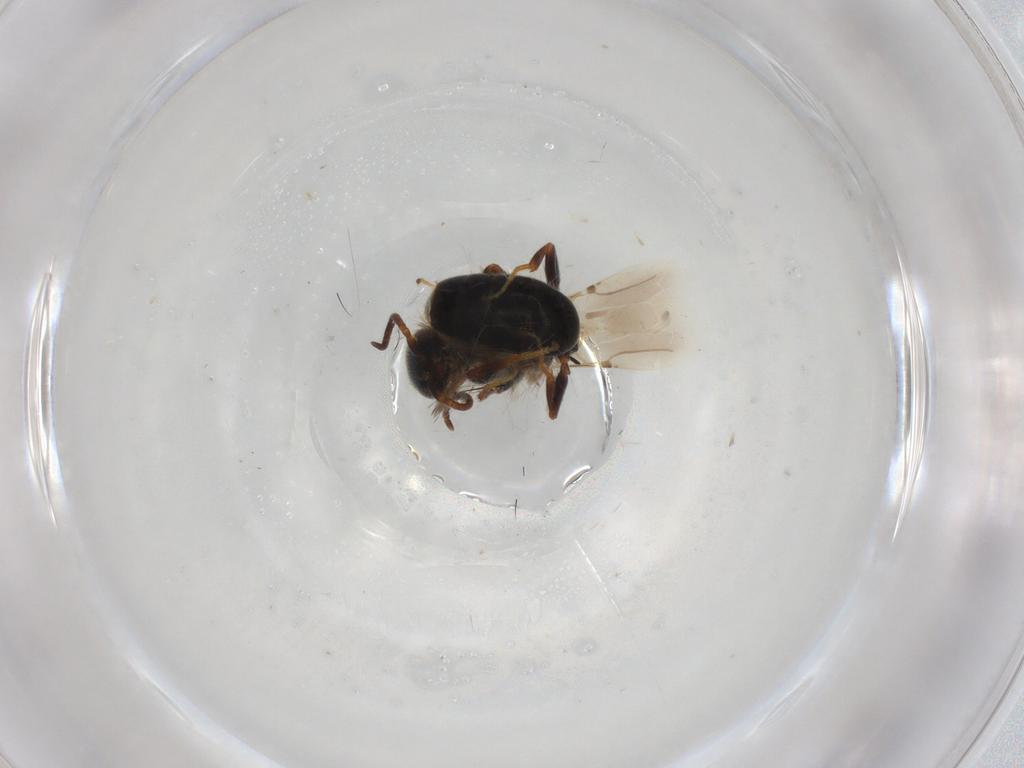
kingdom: Animalia
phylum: Arthropoda
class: Insecta
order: Hymenoptera
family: Bethylidae
